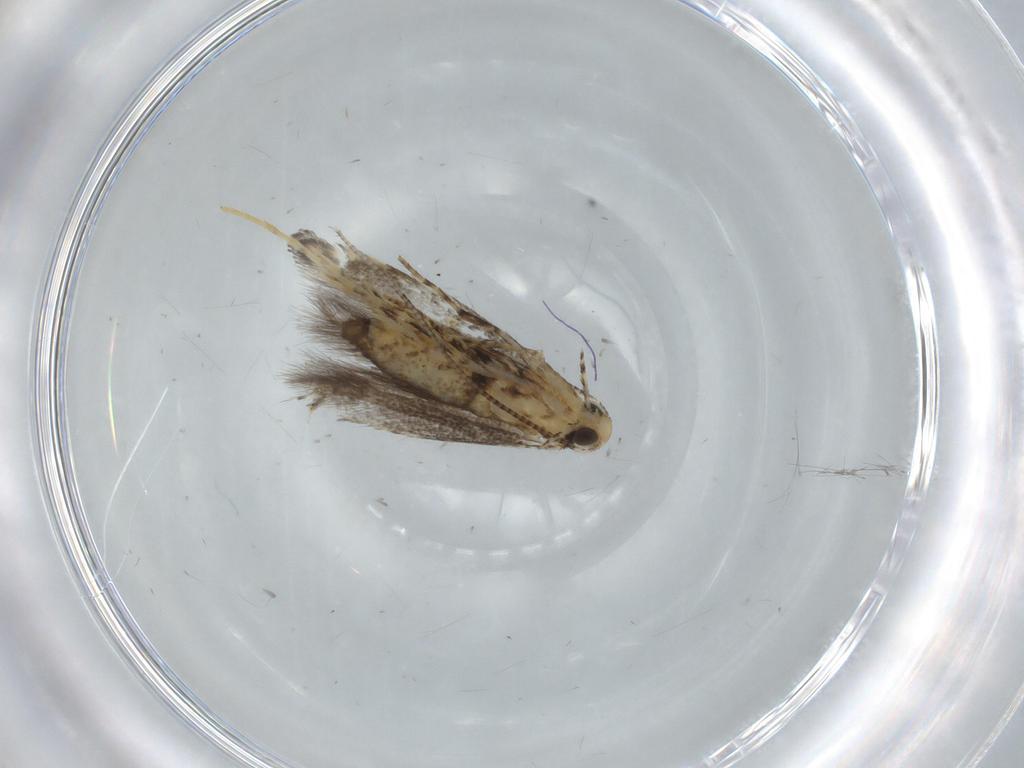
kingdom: Animalia
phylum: Arthropoda
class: Insecta
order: Lepidoptera
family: Gracillariidae
